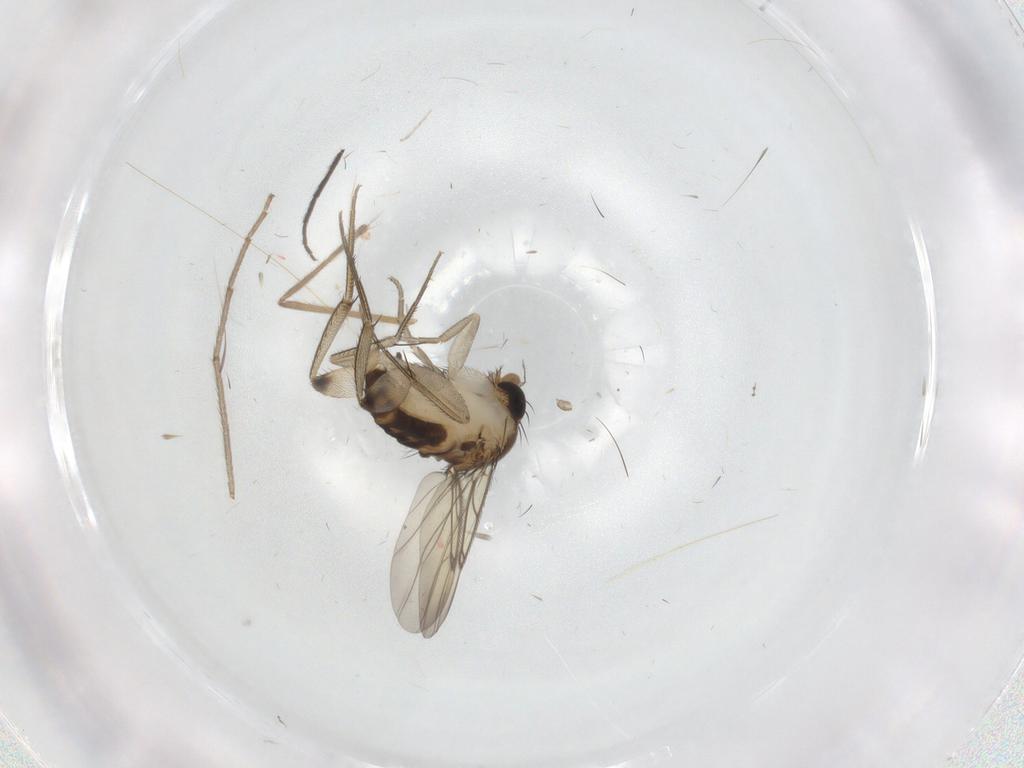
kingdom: Animalia
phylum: Arthropoda
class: Insecta
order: Diptera
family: Phoridae
